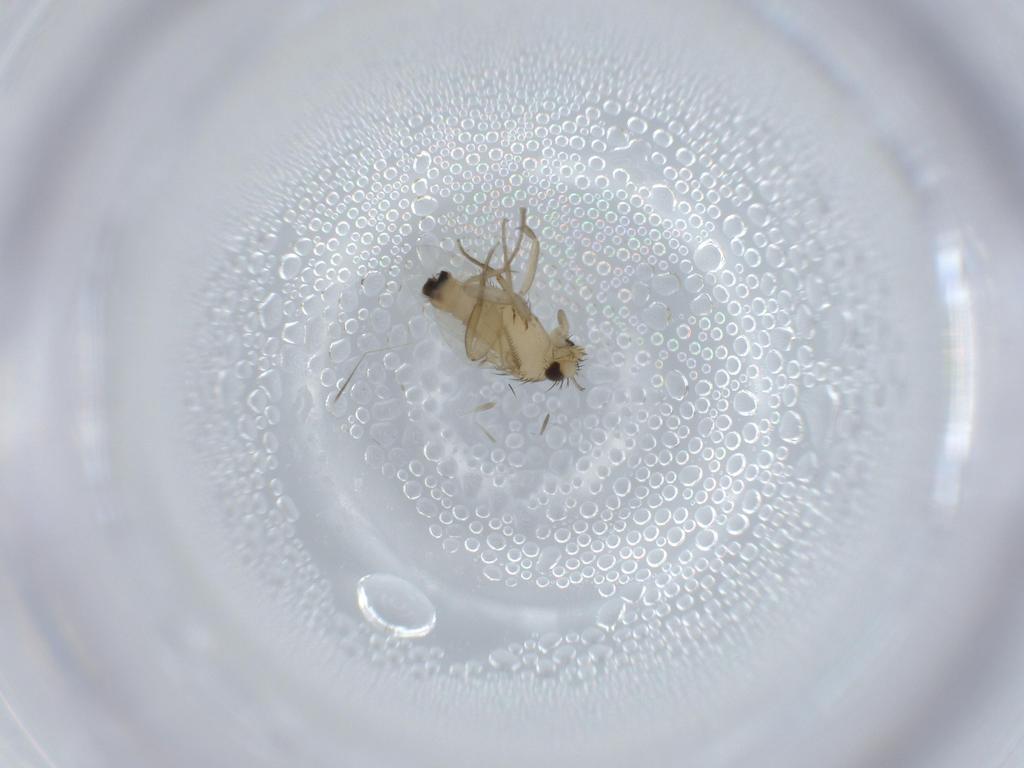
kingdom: Animalia
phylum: Arthropoda
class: Insecta
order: Diptera
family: Phoridae
